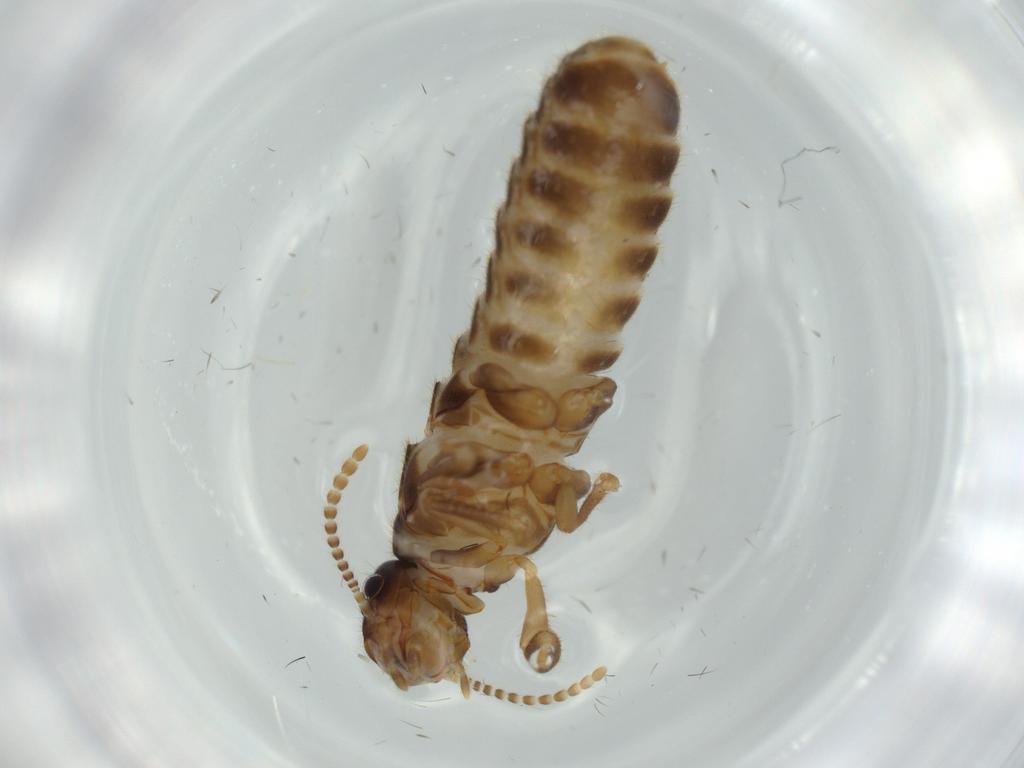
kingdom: Animalia
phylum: Arthropoda
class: Insecta
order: Blattodea
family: Termitidae
